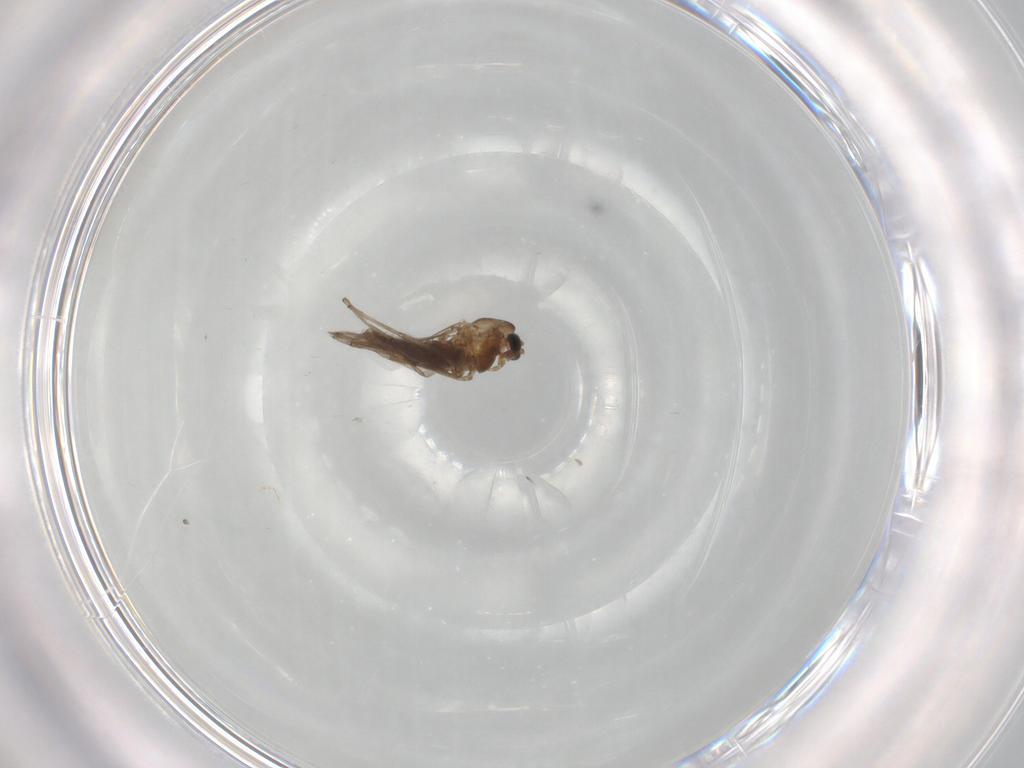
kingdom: Animalia
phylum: Arthropoda
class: Insecta
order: Diptera
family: Chironomidae
